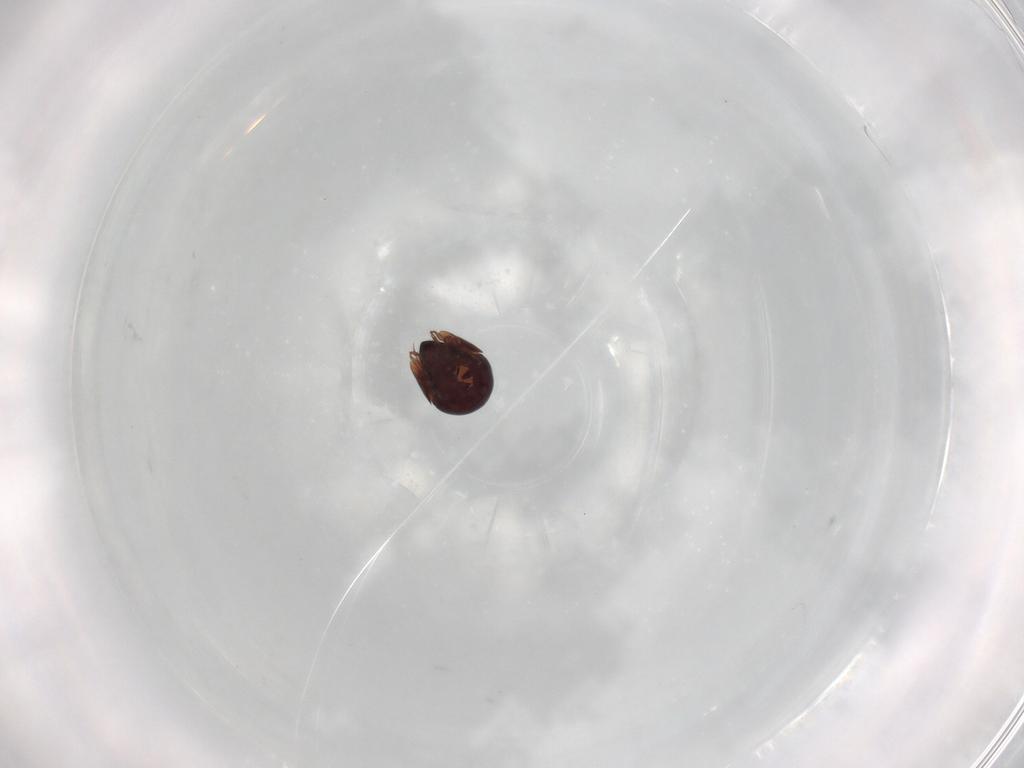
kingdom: Animalia
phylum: Arthropoda
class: Arachnida
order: Sarcoptiformes
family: Galumnidae
